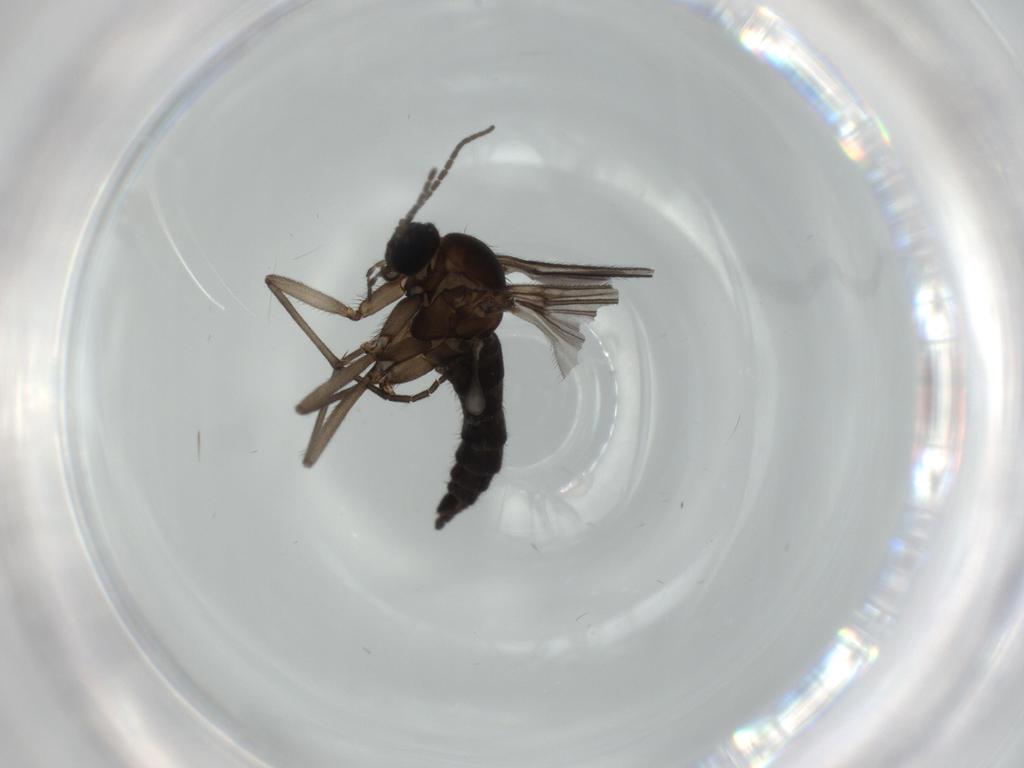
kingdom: Animalia
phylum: Arthropoda
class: Insecta
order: Diptera
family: Sciaridae
